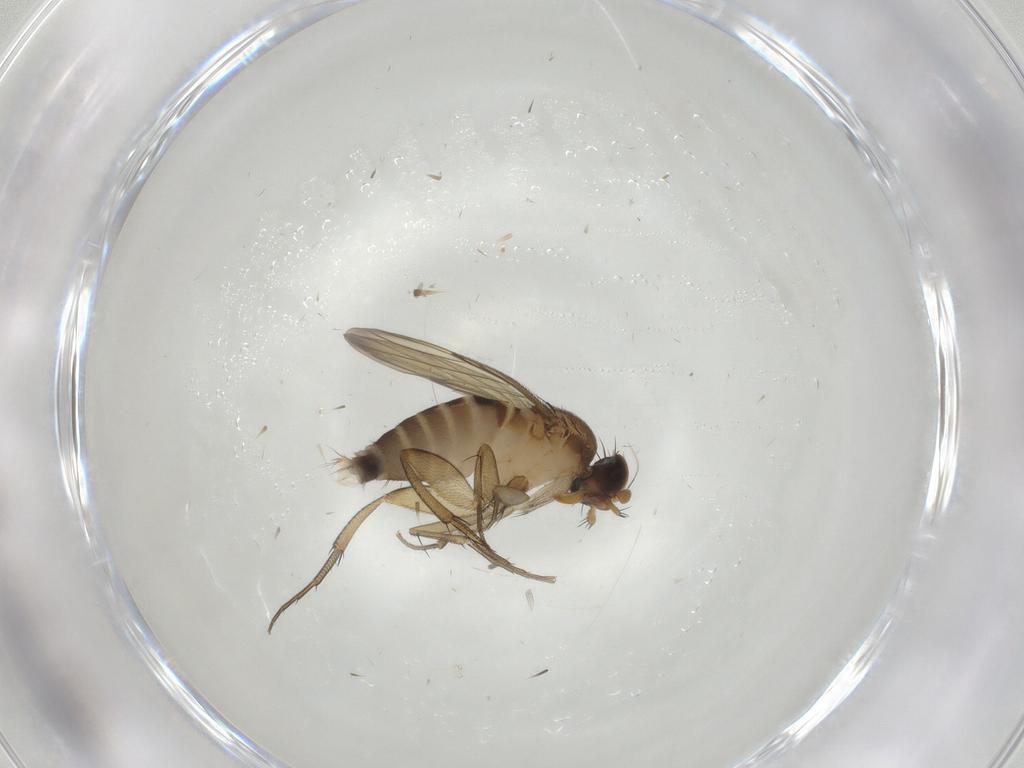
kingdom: Animalia
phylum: Arthropoda
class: Insecta
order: Diptera
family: Phoridae
